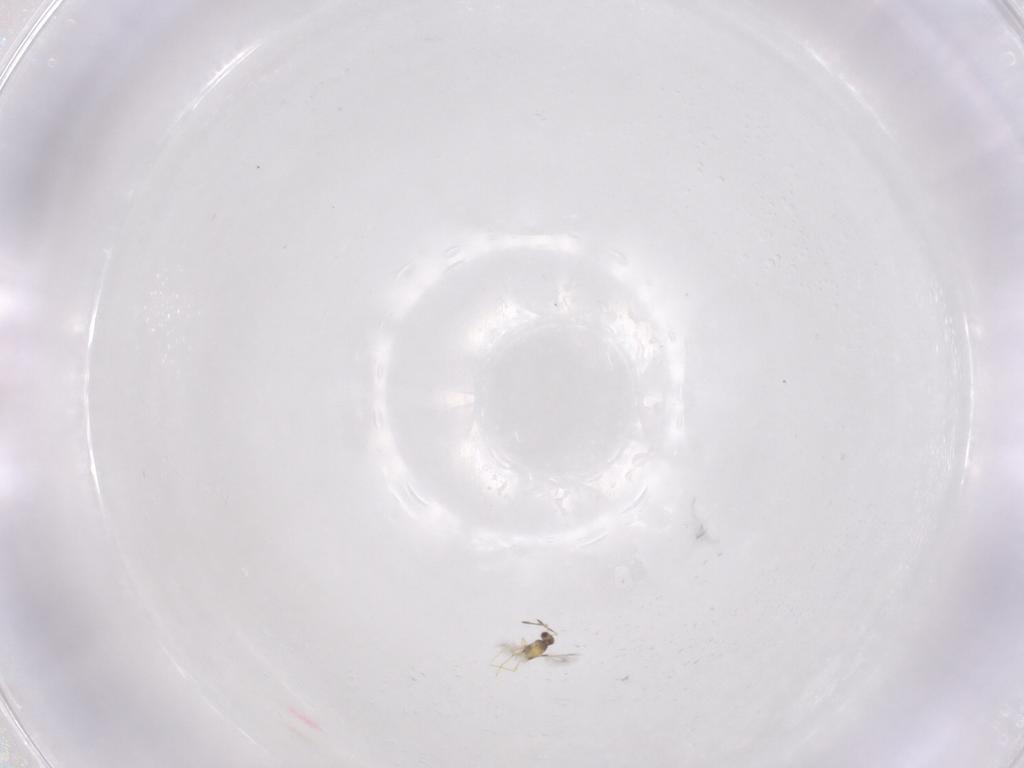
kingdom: Animalia
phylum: Arthropoda
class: Insecta
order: Hymenoptera
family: Mymaridae
